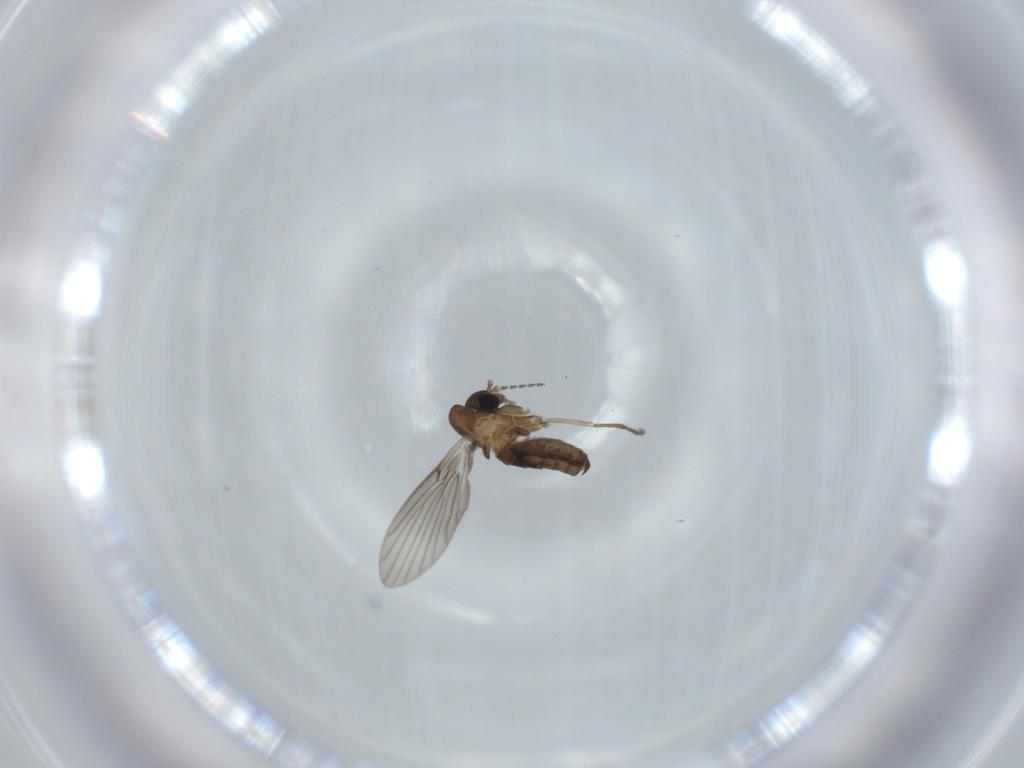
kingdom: Animalia
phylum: Arthropoda
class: Insecta
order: Diptera
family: Psychodidae
